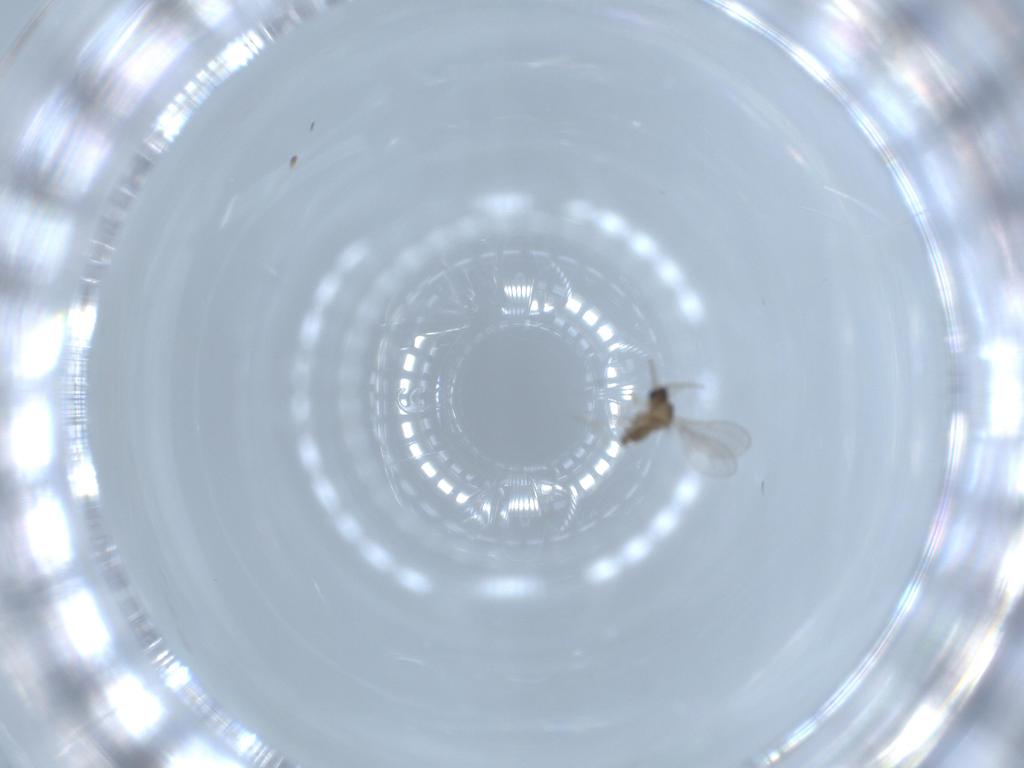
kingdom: Animalia
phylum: Arthropoda
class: Insecta
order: Diptera
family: Cecidomyiidae
